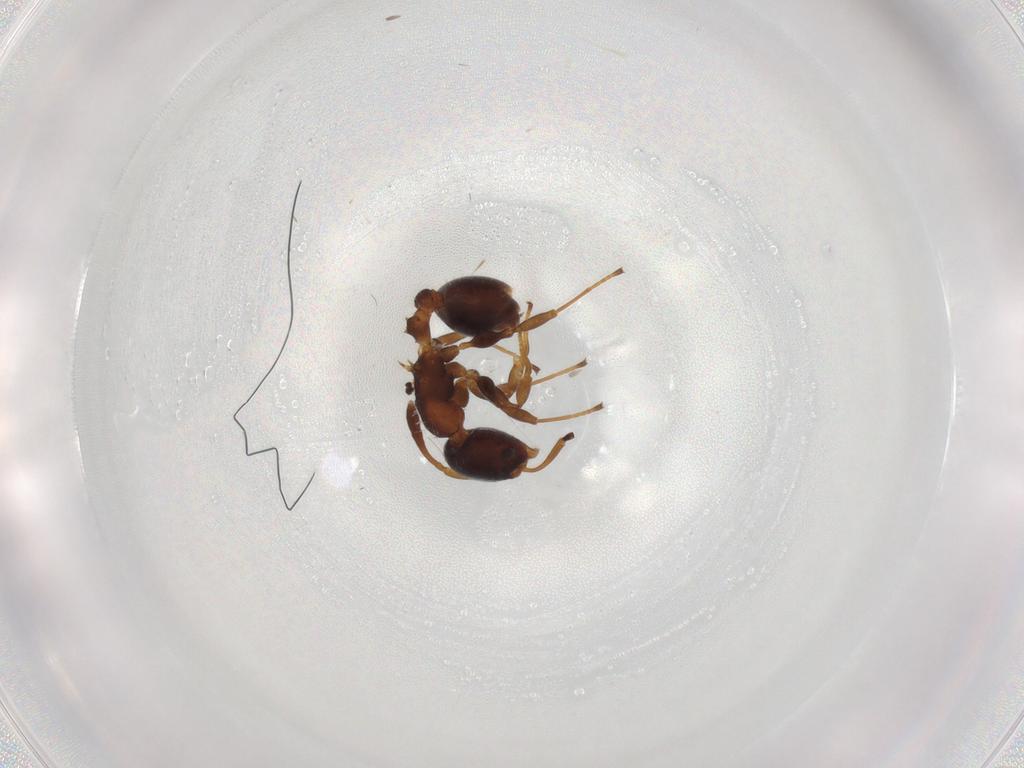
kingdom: Animalia
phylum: Arthropoda
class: Insecta
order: Hymenoptera
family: Formicidae
